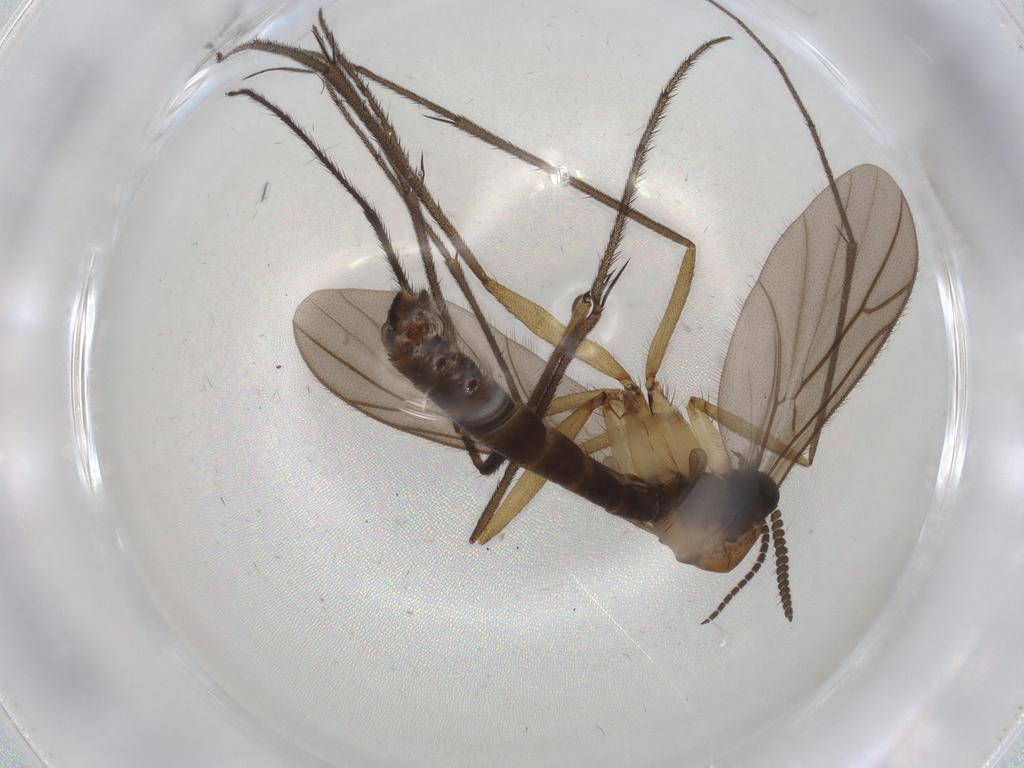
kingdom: Animalia
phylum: Arthropoda
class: Insecta
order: Diptera
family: Ditomyiidae
